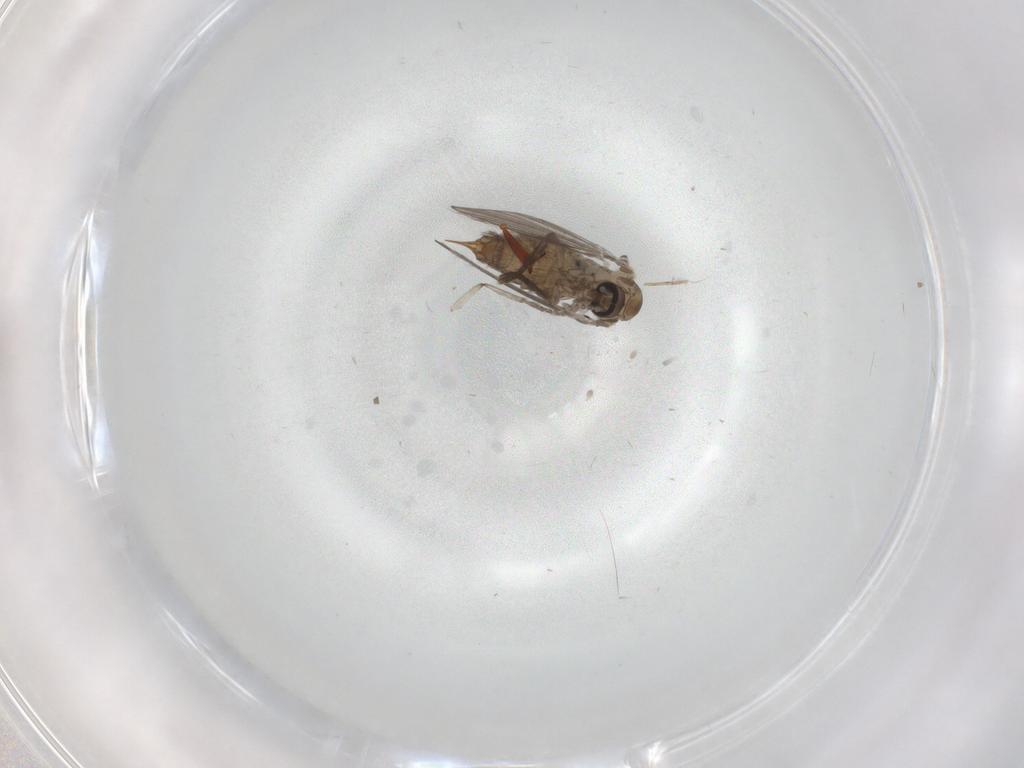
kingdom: Animalia
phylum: Arthropoda
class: Insecta
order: Diptera
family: Psychodidae
